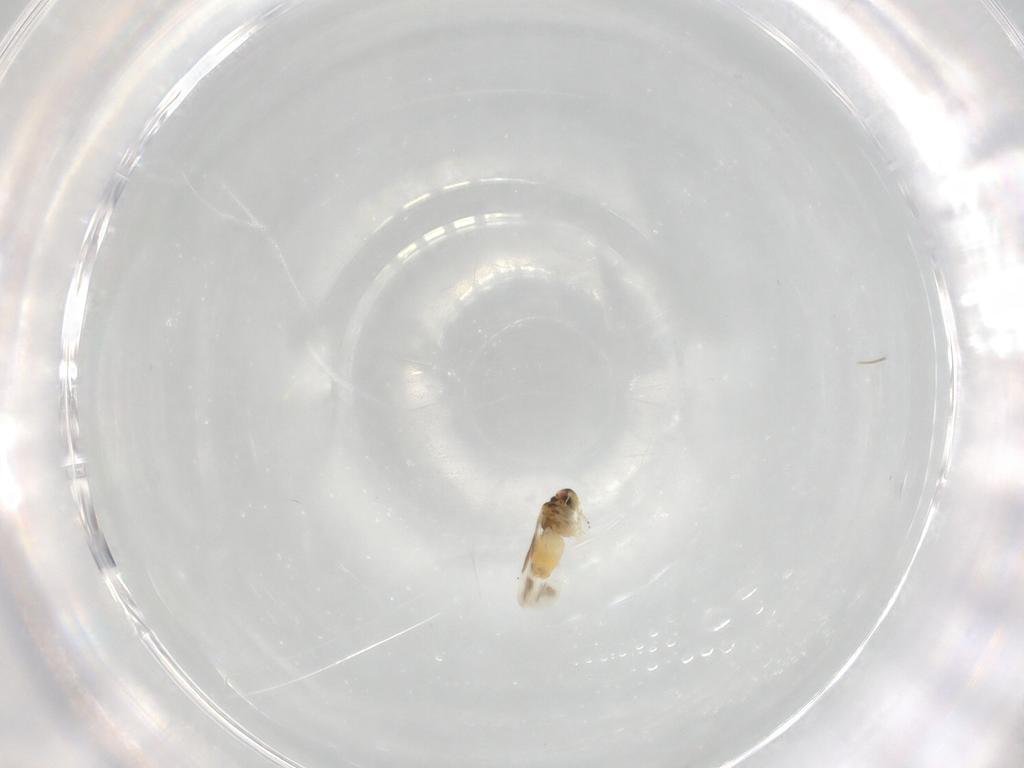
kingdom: Animalia
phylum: Arthropoda
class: Insecta
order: Hemiptera
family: Aleyrodidae
